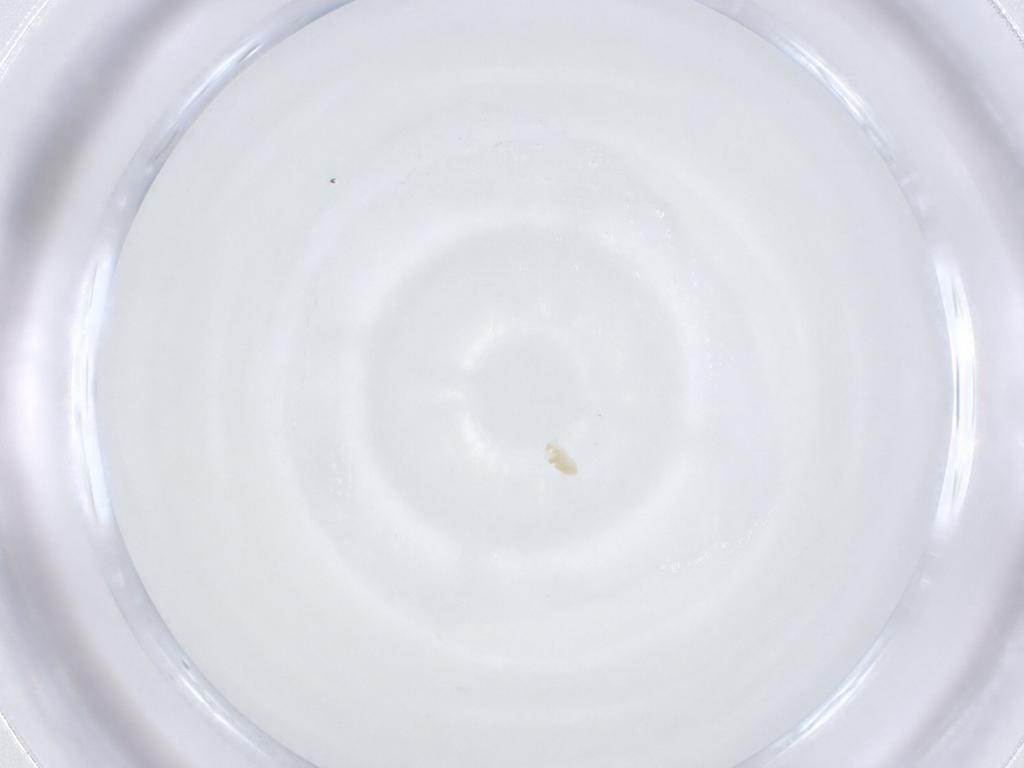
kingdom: Animalia
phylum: Arthropoda
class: Arachnida
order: Trombidiformes
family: Eupodidae
